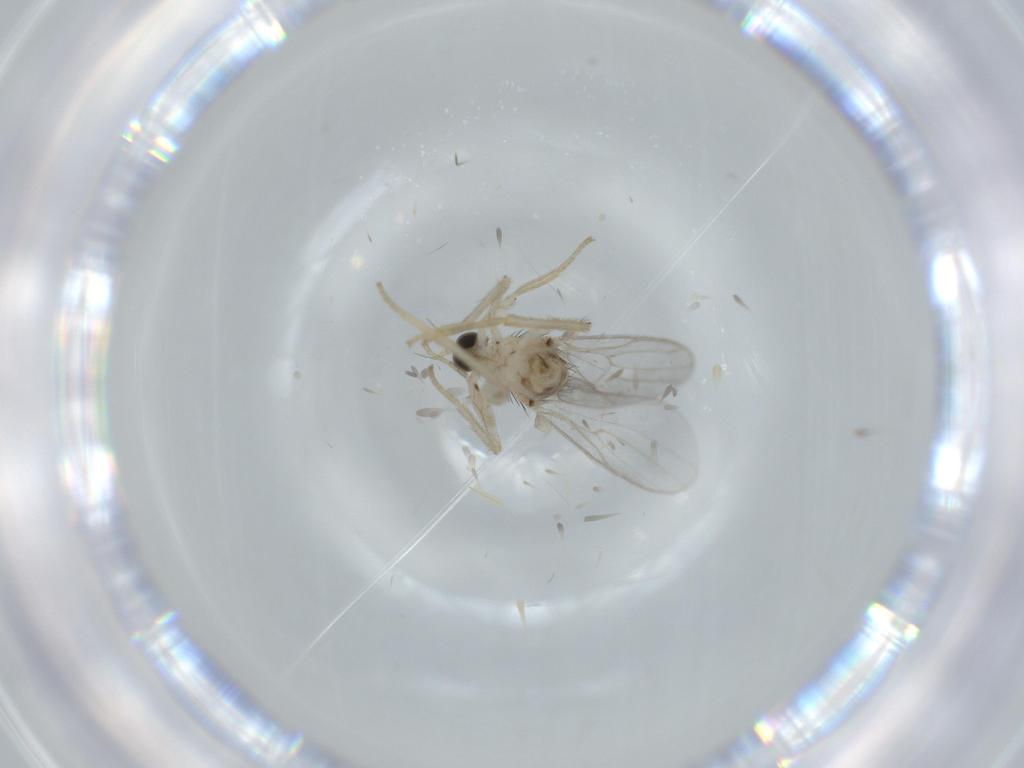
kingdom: Animalia
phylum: Arthropoda
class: Insecta
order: Diptera
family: Hybotidae
